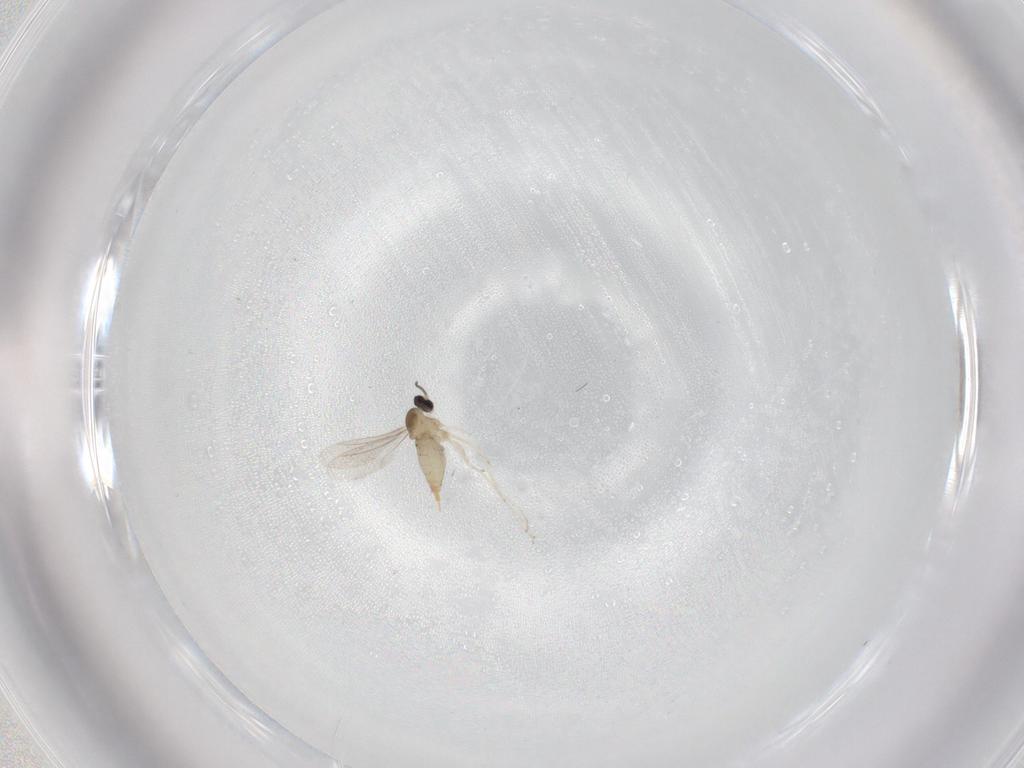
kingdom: Animalia
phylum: Arthropoda
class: Insecta
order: Diptera
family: Cecidomyiidae
